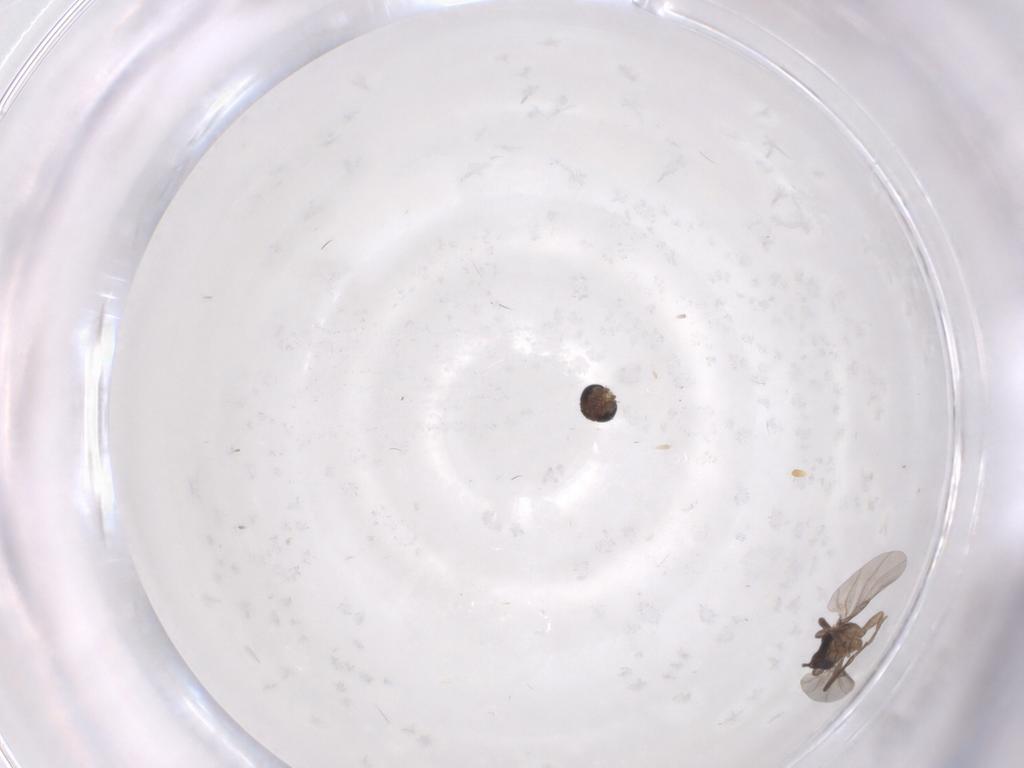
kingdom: Animalia
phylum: Arthropoda
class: Insecta
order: Diptera
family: Phoridae
